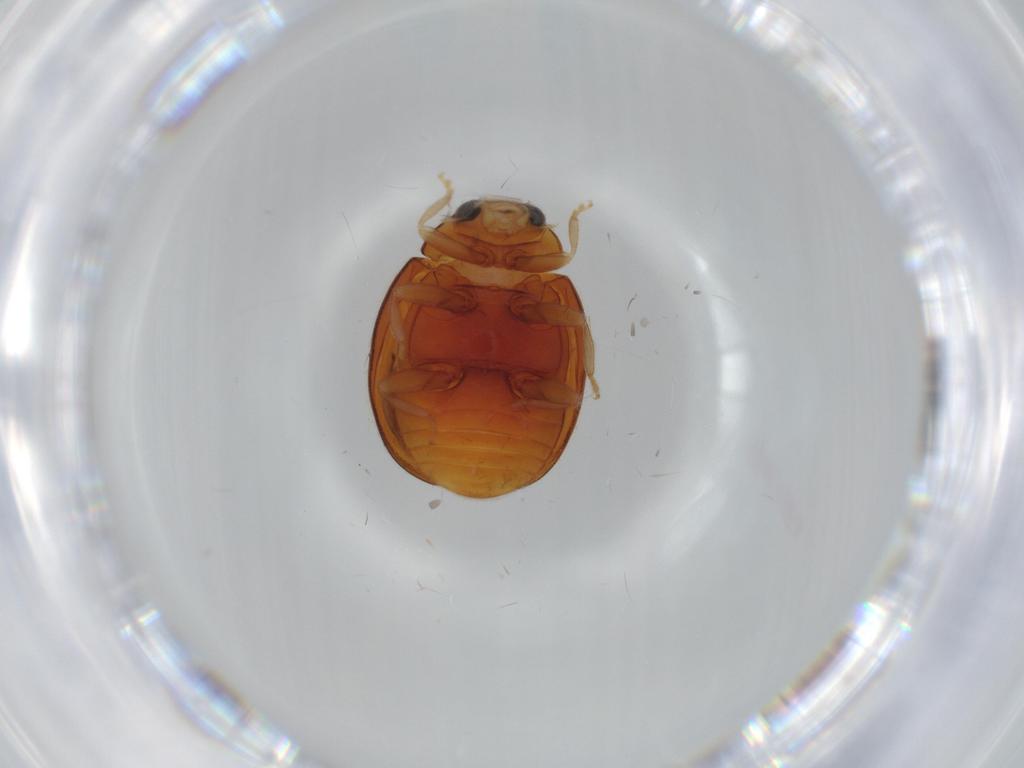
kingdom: Animalia
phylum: Arthropoda
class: Insecta
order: Coleoptera
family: Coccinellidae
